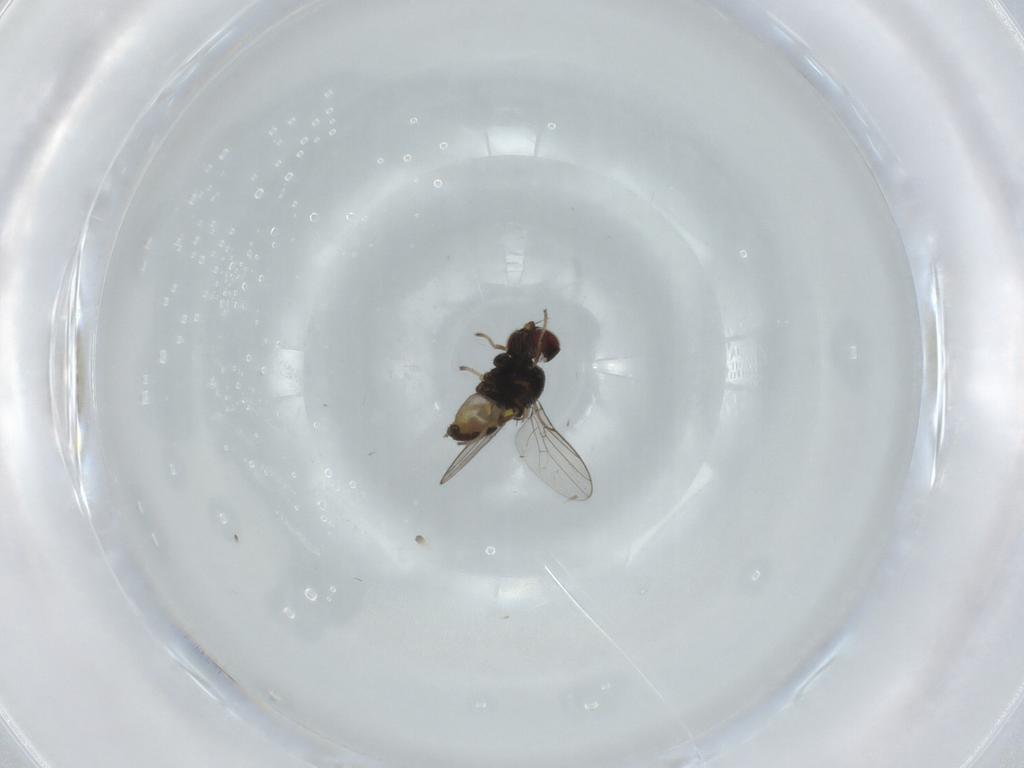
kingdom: Animalia
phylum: Arthropoda
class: Insecta
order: Diptera
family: Chloropidae
